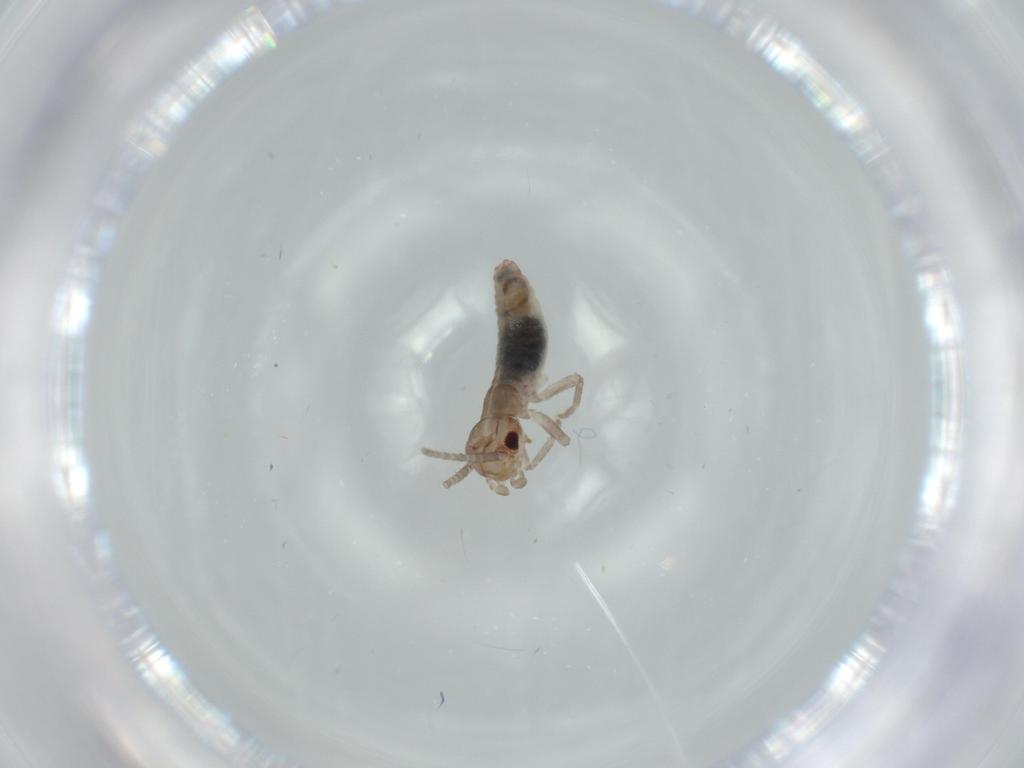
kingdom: Animalia
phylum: Arthropoda
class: Insecta
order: Orthoptera
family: Mogoplistidae
